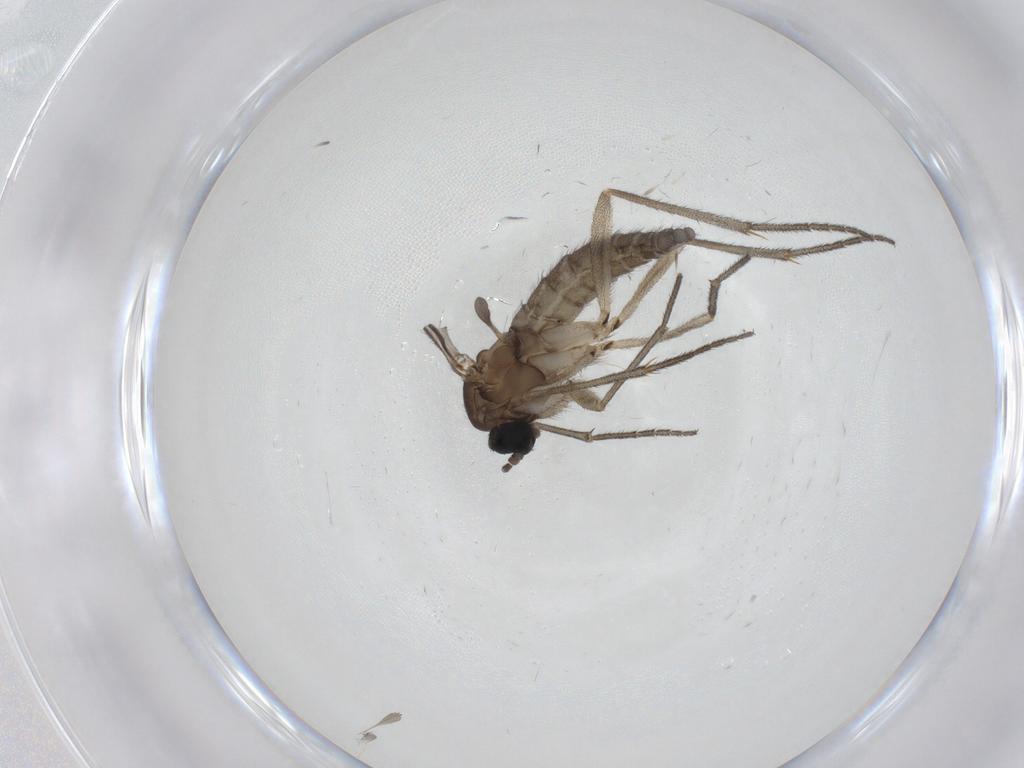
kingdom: Animalia
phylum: Arthropoda
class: Insecta
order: Diptera
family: Sciaridae
